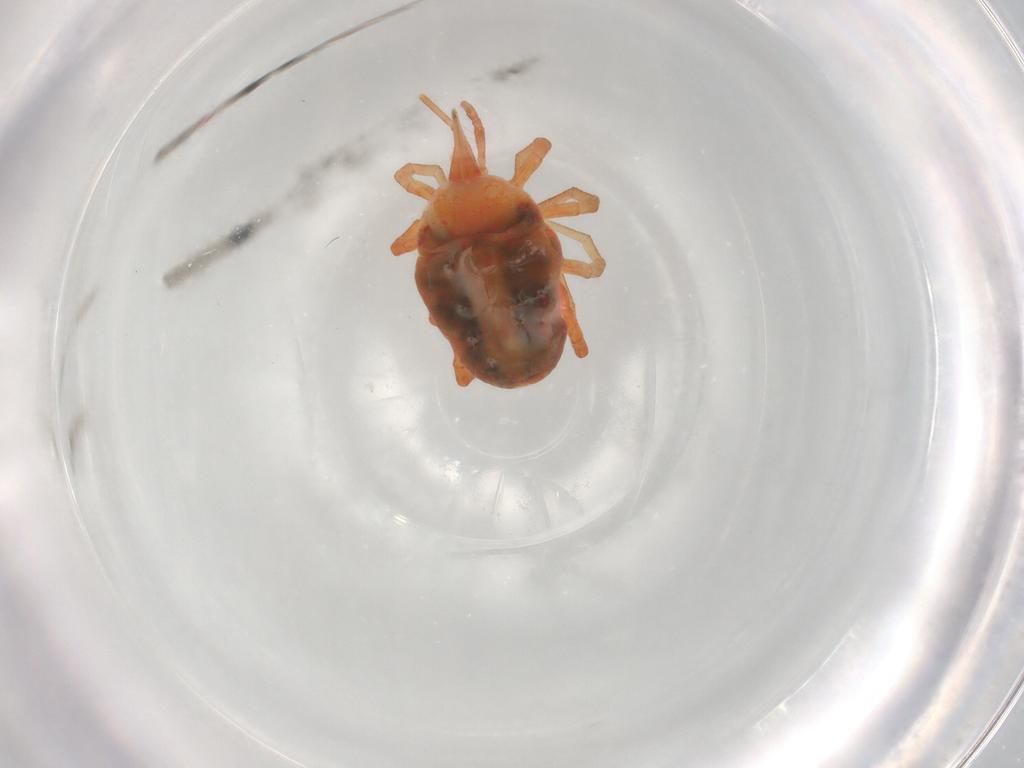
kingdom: Animalia
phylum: Arthropoda
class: Arachnida
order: Trombidiformes
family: Bdellidae
